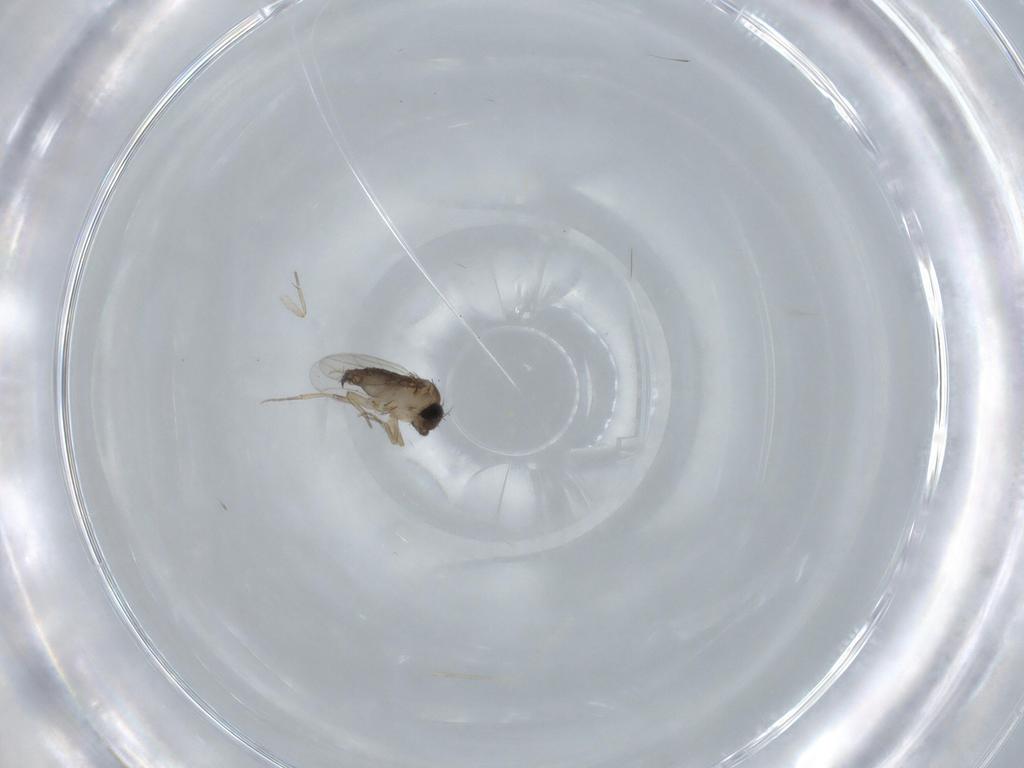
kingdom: Animalia
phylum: Arthropoda
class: Insecta
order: Diptera
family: Phoridae
